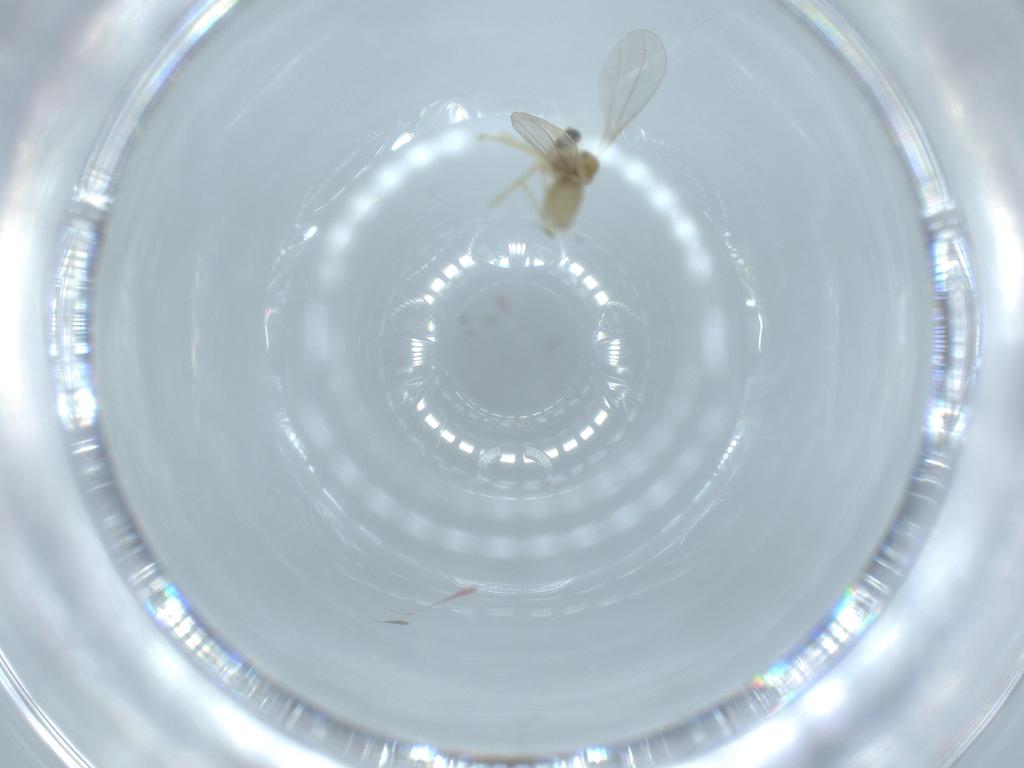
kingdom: Animalia
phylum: Arthropoda
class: Insecta
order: Diptera
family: Cecidomyiidae
